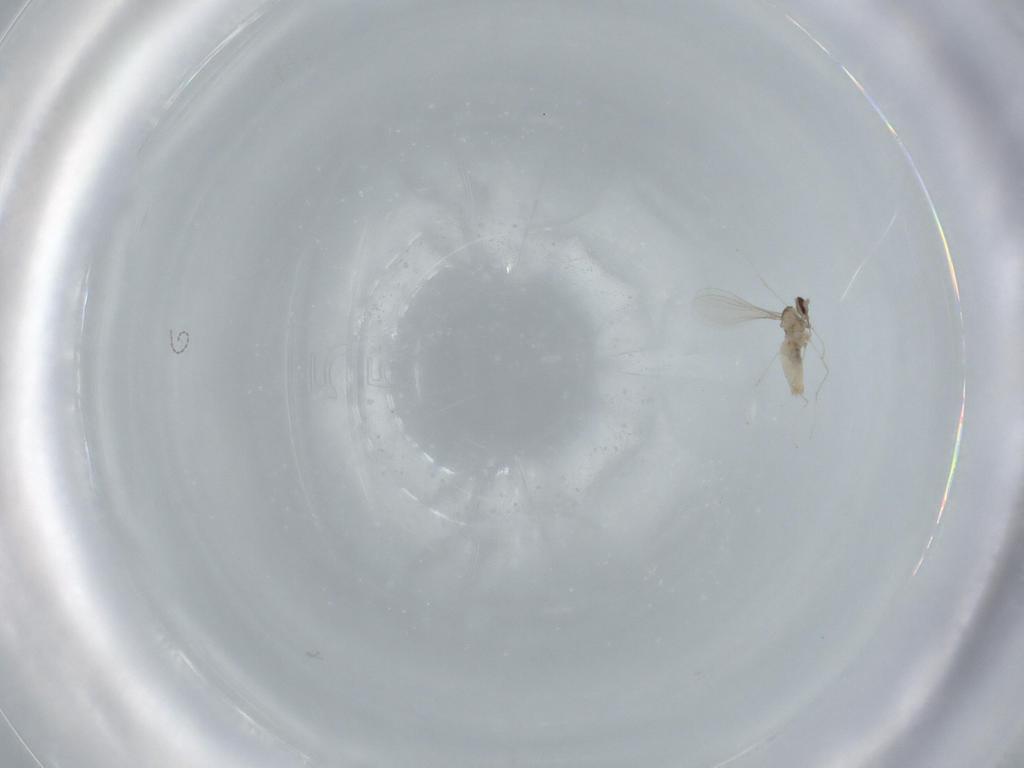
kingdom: Animalia
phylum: Arthropoda
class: Insecta
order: Diptera
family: Cecidomyiidae
